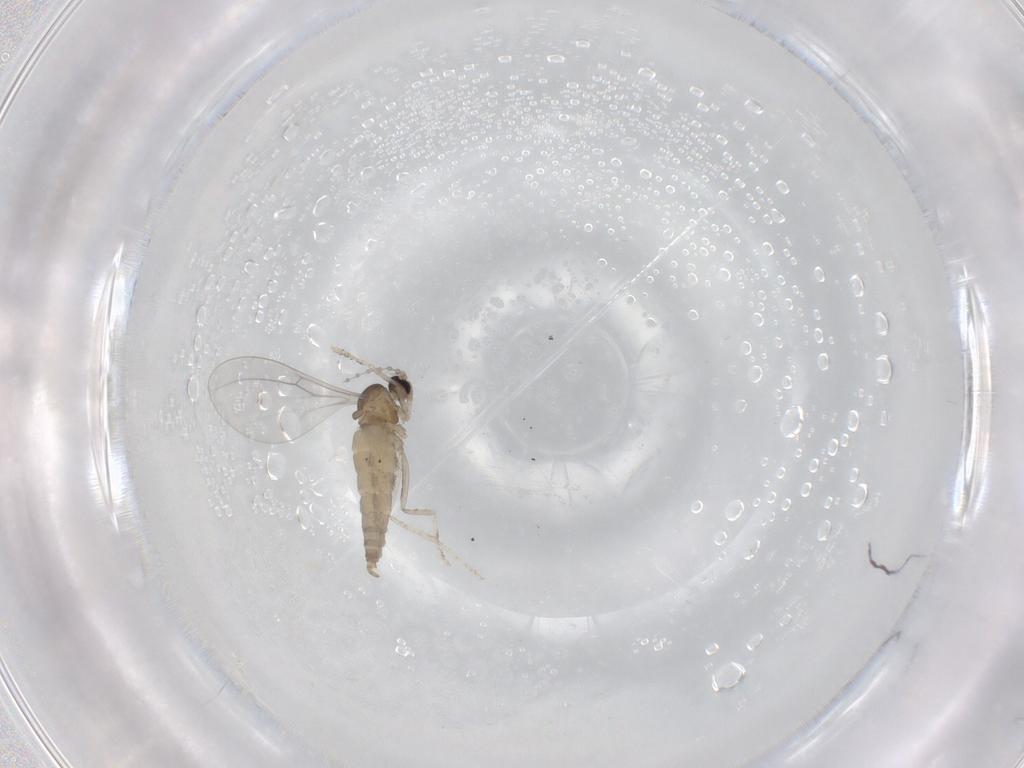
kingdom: Animalia
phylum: Arthropoda
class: Insecta
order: Diptera
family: Cecidomyiidae
